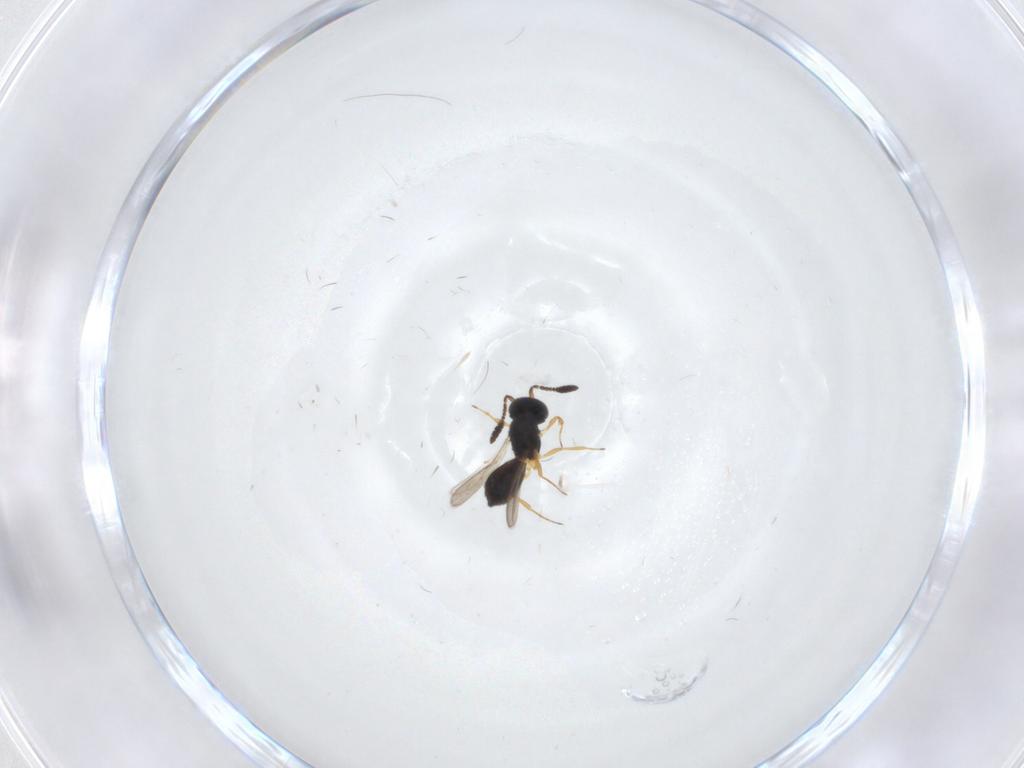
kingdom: Animalia
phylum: Arthropoda
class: Insecta
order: Hymenoptera
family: Scelionidae
